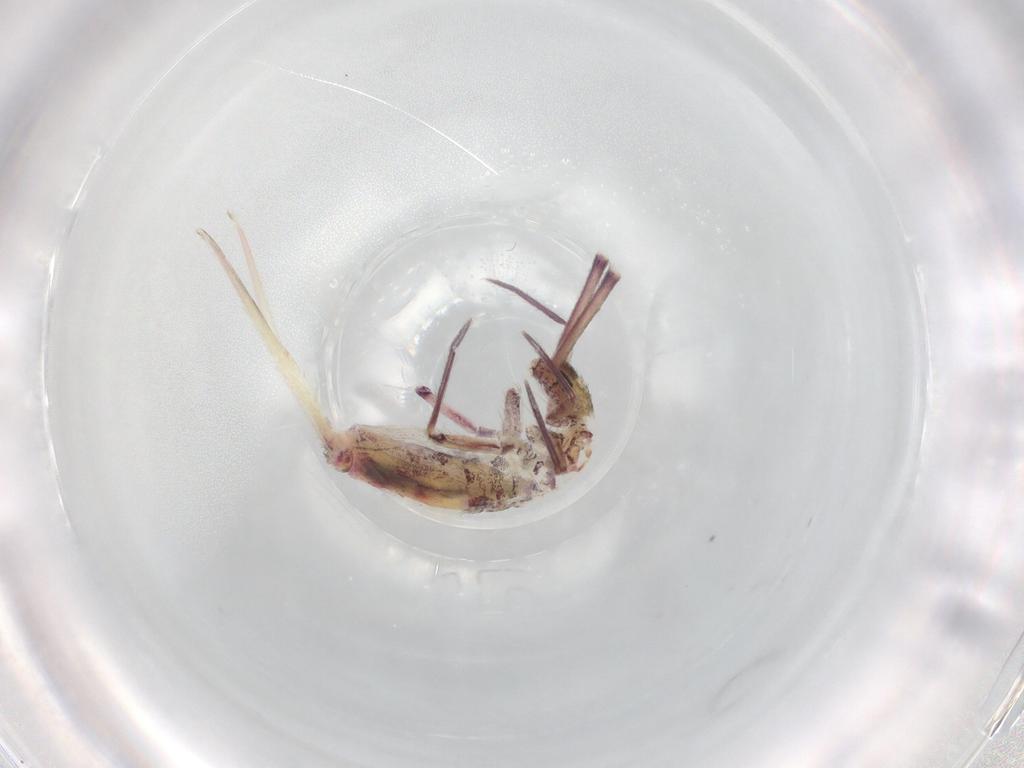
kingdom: Animalia
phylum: Arthropoda
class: Collembola
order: Entomobryomorpha
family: Entomobryidae
